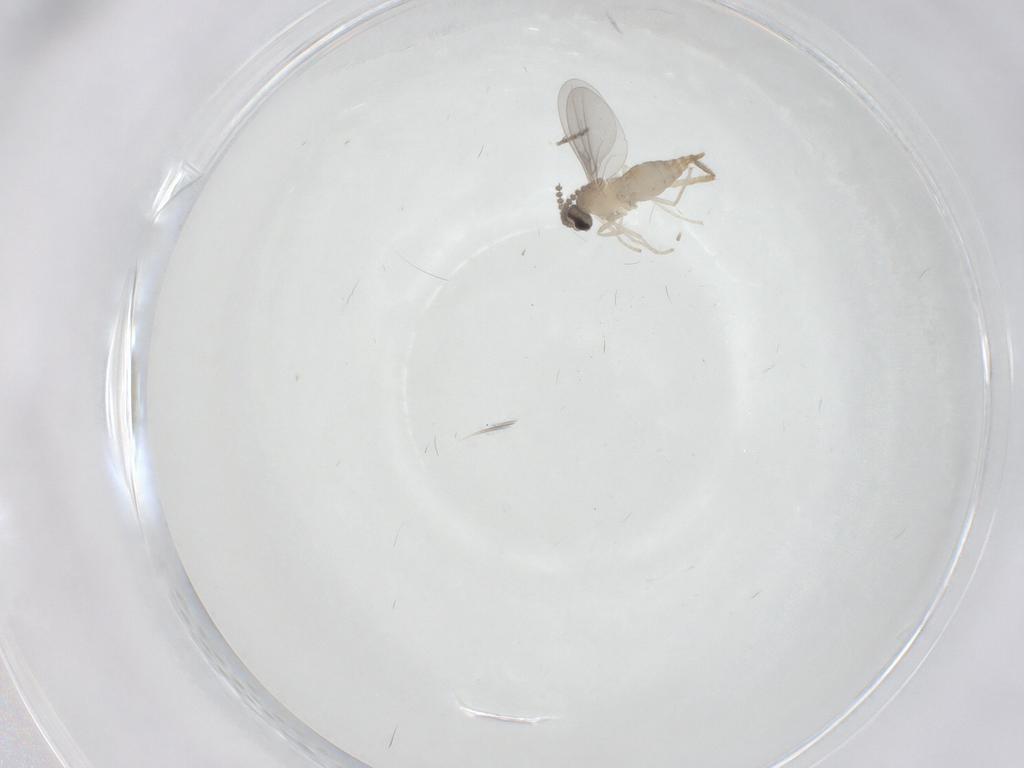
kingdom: Animalia
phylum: Arthropoda
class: Insecta
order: Diptera
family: Cecidomyiidae
